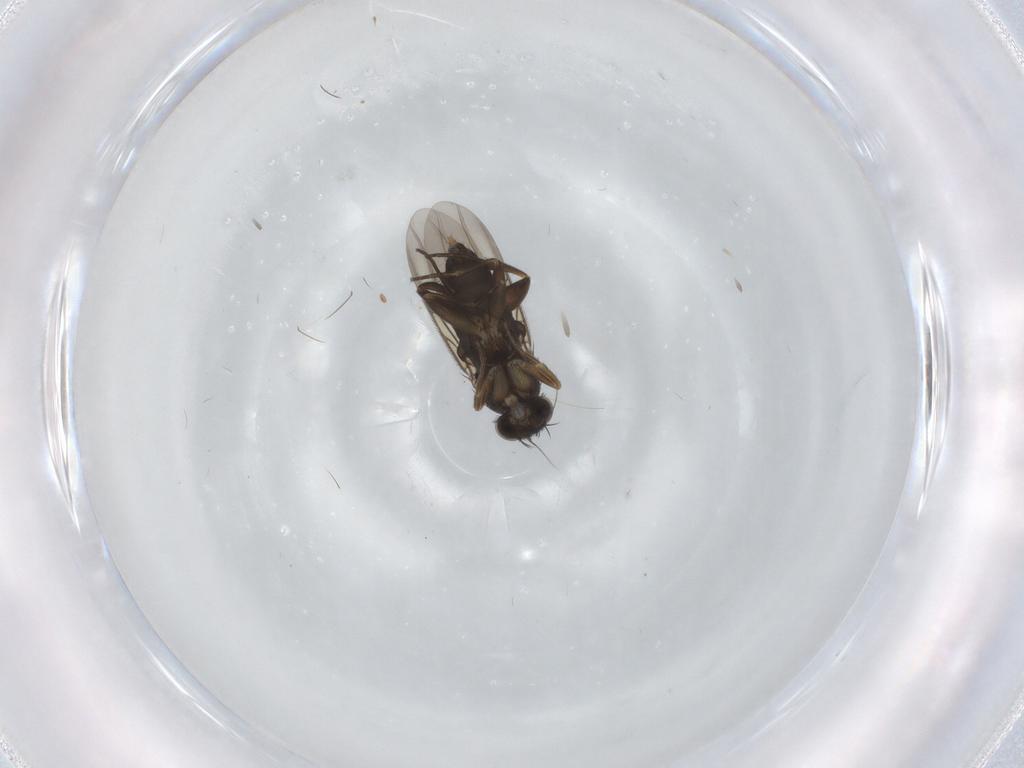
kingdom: Animalia
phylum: Arthropoda
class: Insecta
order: Diptera
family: Phoridae
